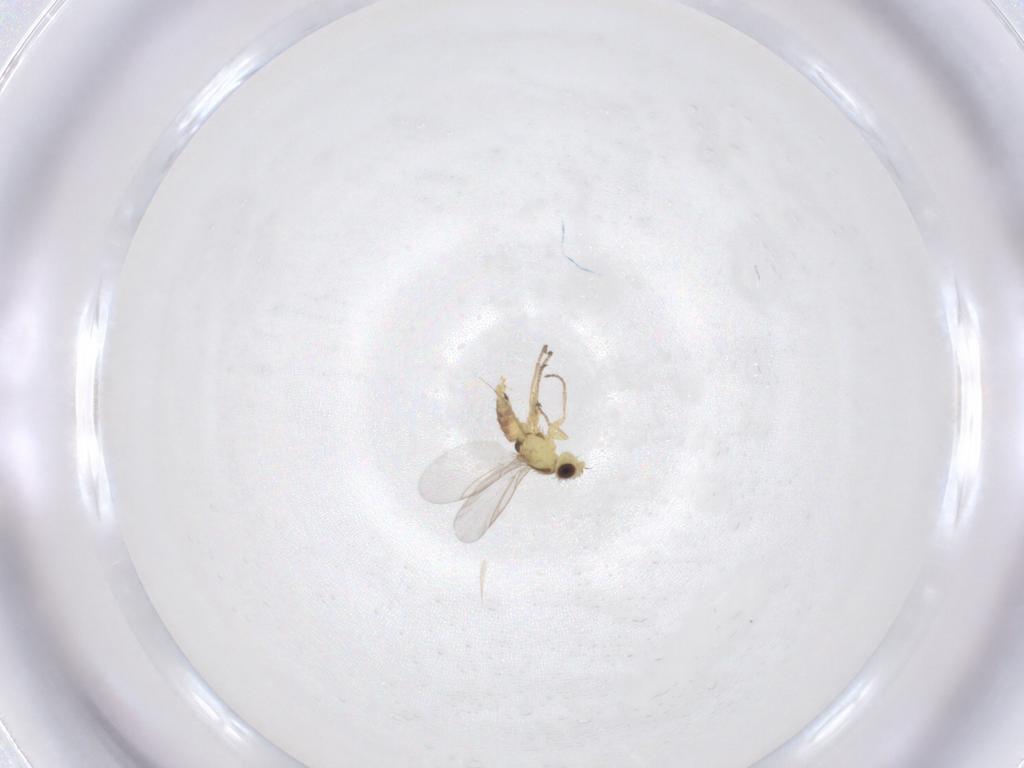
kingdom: Animalia
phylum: Arthropoda
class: Insecta
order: Diptera
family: Agromyzidae
